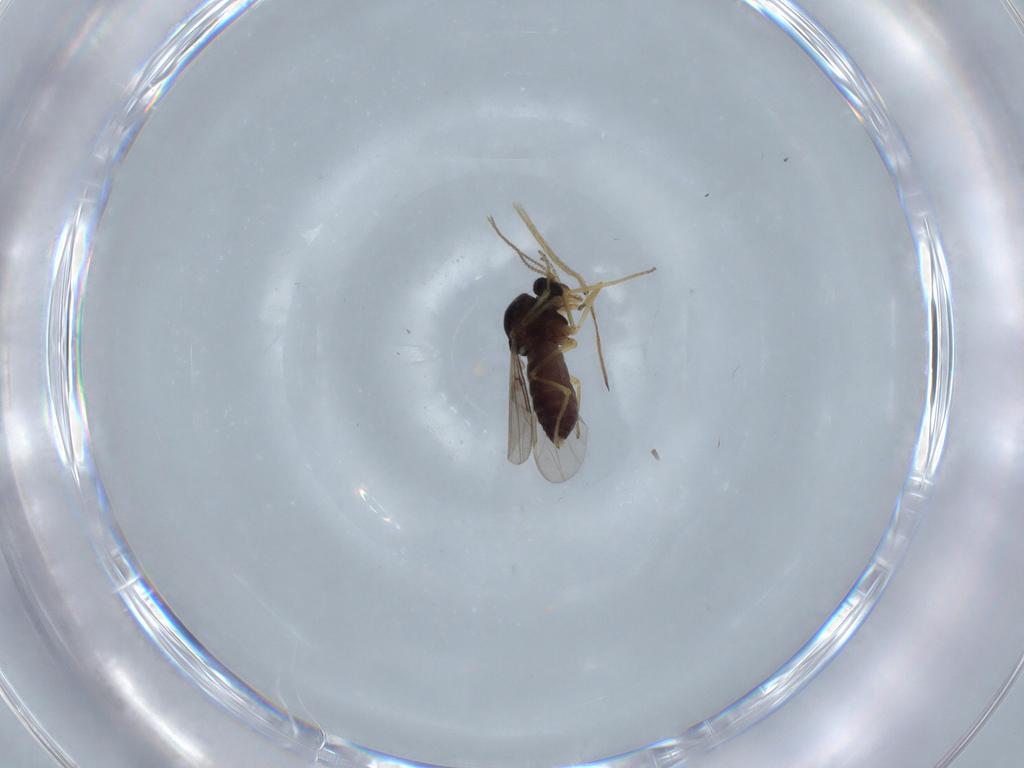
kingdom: Animalia
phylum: Arthropoda
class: Insecta
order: Diptera
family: Ceratopogonidae
